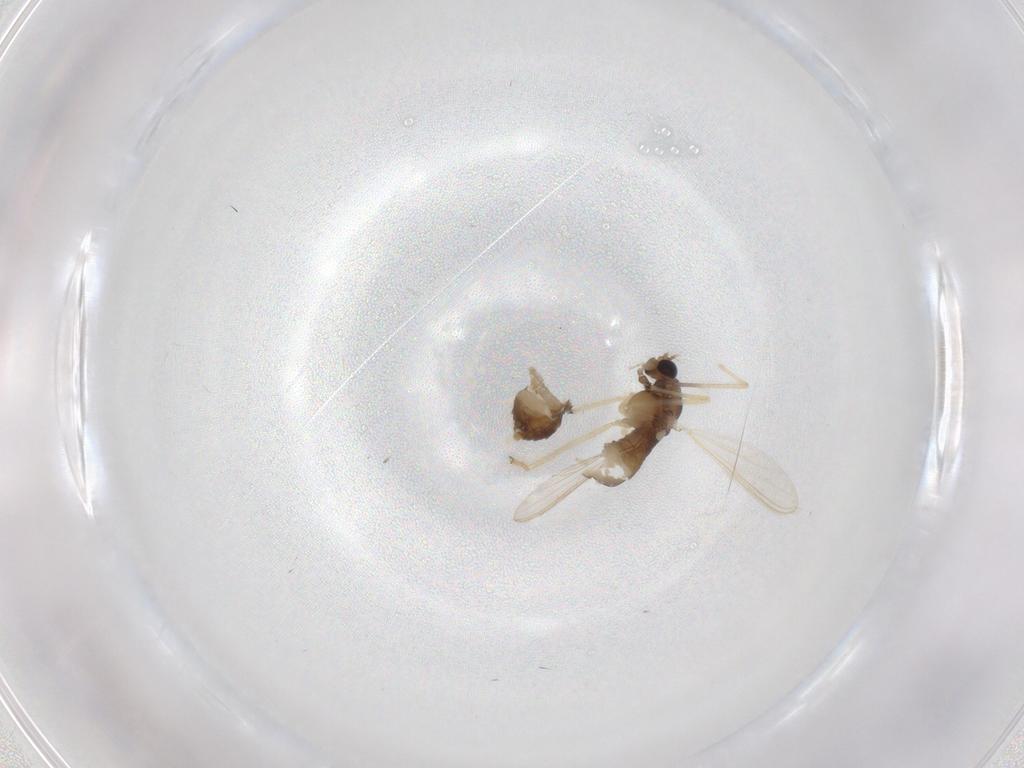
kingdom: Animalia
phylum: Arthropoda
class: Insecta
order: Diptera
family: Chironomidae
